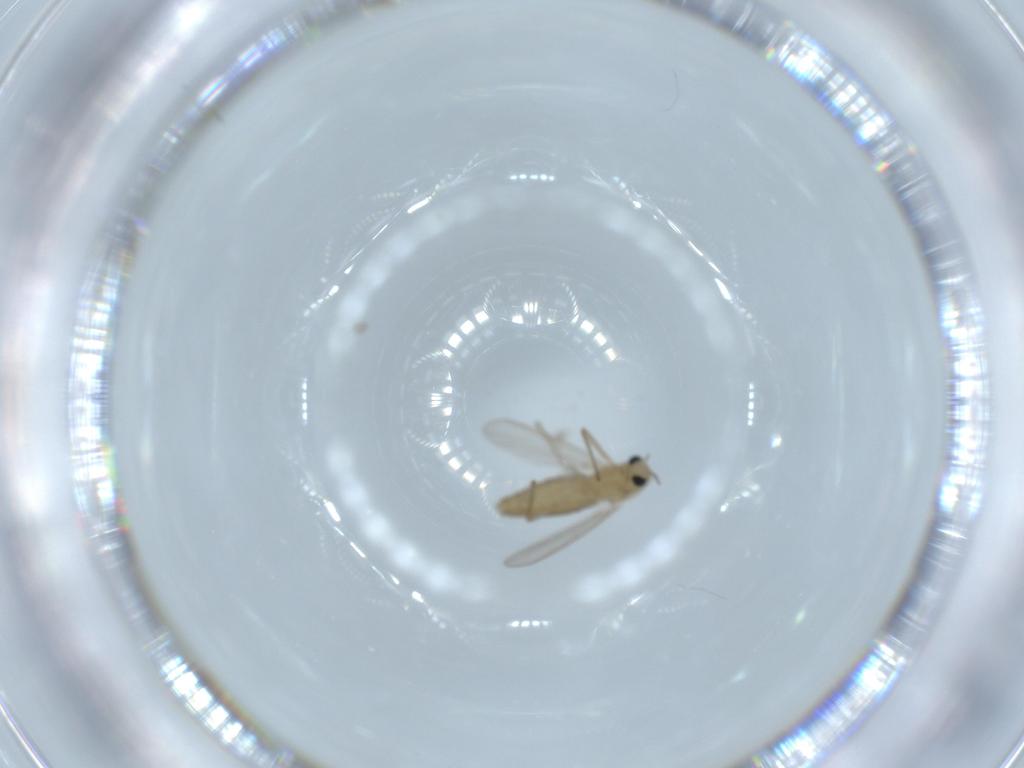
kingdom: Animalia
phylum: Arthropoda
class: Insecta
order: Diptera
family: Chironomidae
